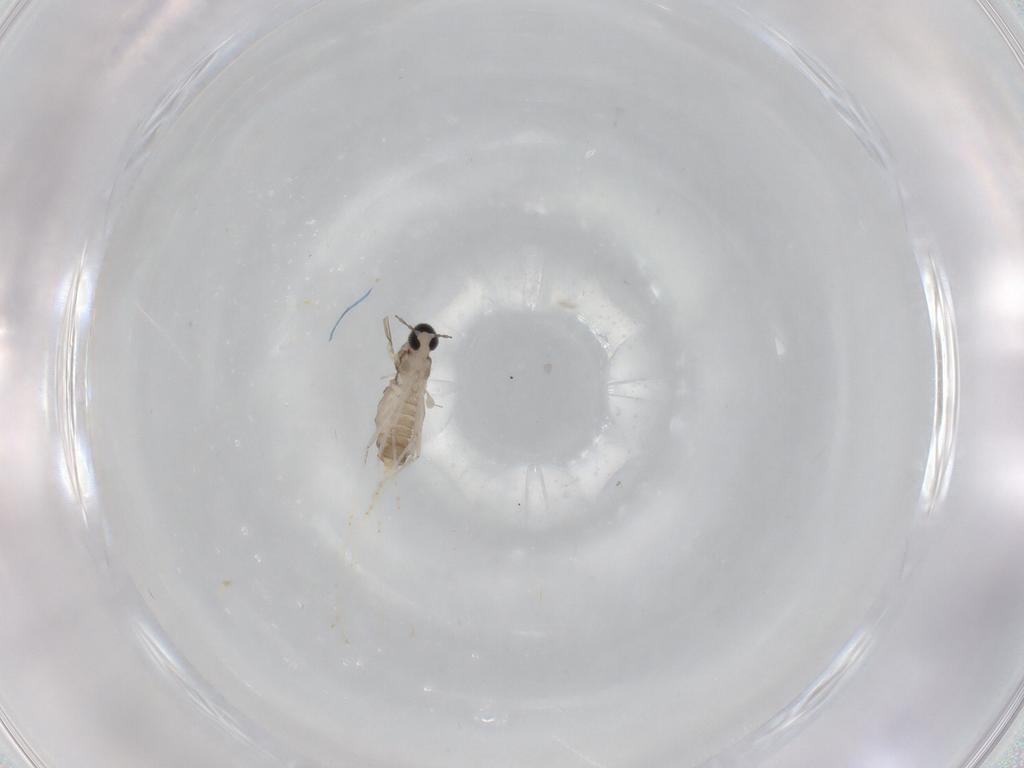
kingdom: Animalia
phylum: Arthropoda
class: Insecta
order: Diptera
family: Cecidomyiidae
